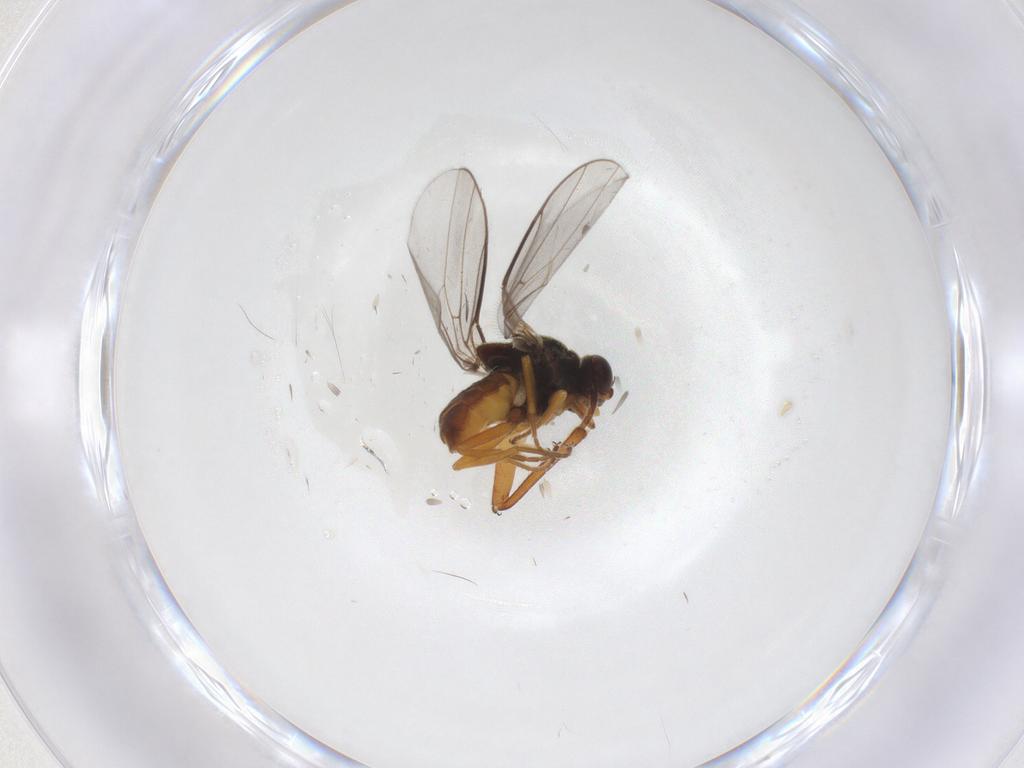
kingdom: Animalia
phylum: Arthropoda
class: Insecta
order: Diptera
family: Chloropidae
